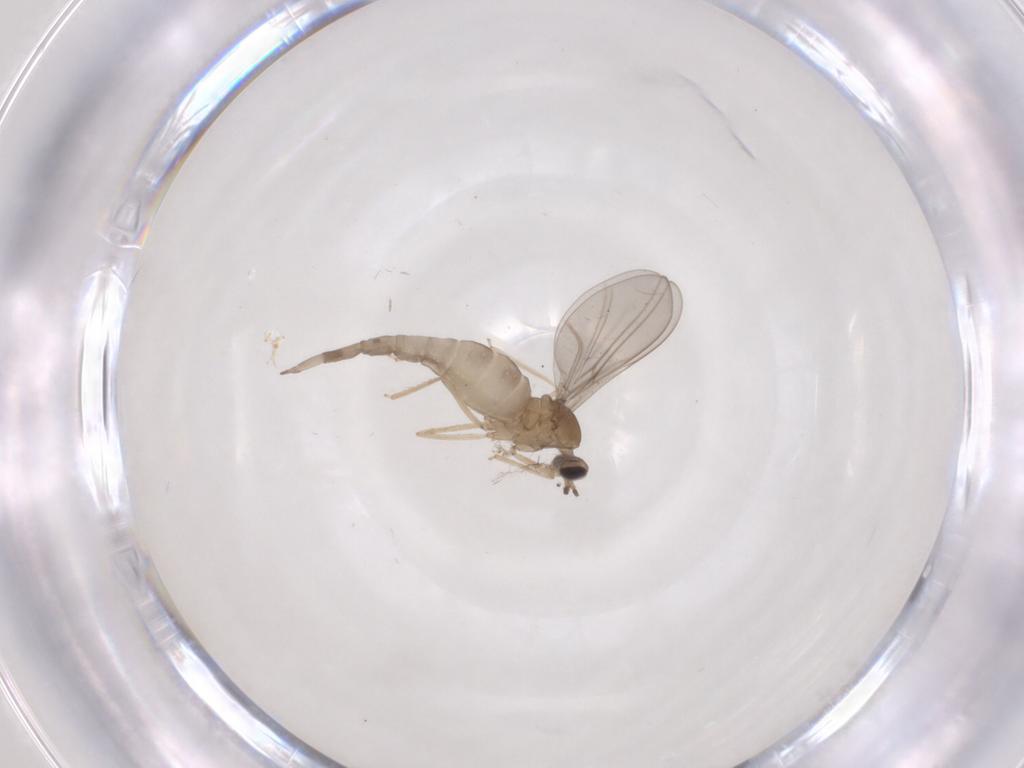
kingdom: Animalia
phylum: Arthropoda
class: Insecta
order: Diptera
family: Cecidomyiidae
